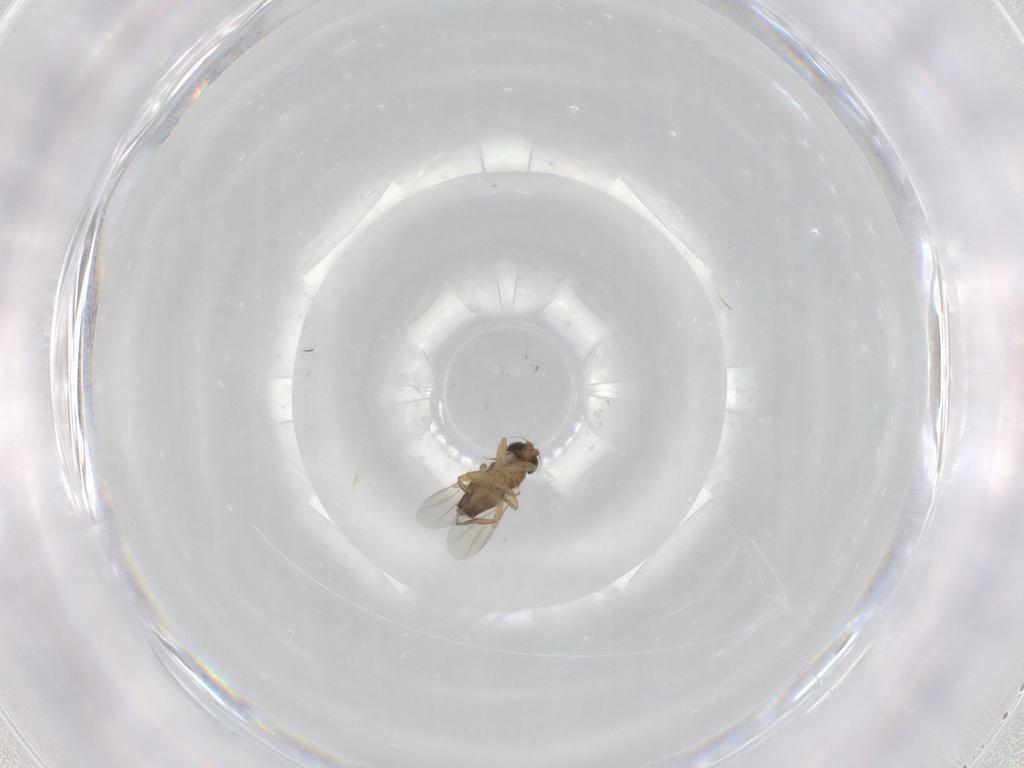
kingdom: Animalia
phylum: Arthropoda
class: Insecta
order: Diptera
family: Phoridae
